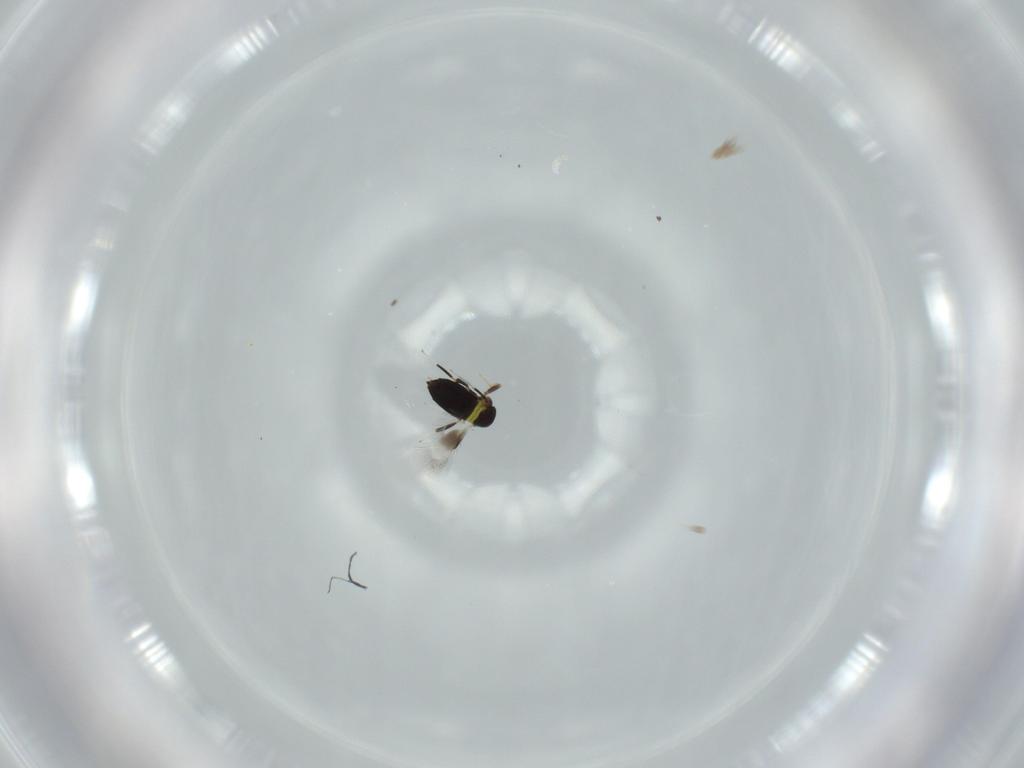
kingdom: Animalia
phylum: Arthropoda
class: Insecta
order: Hymenoptera
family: Signiphoridae
